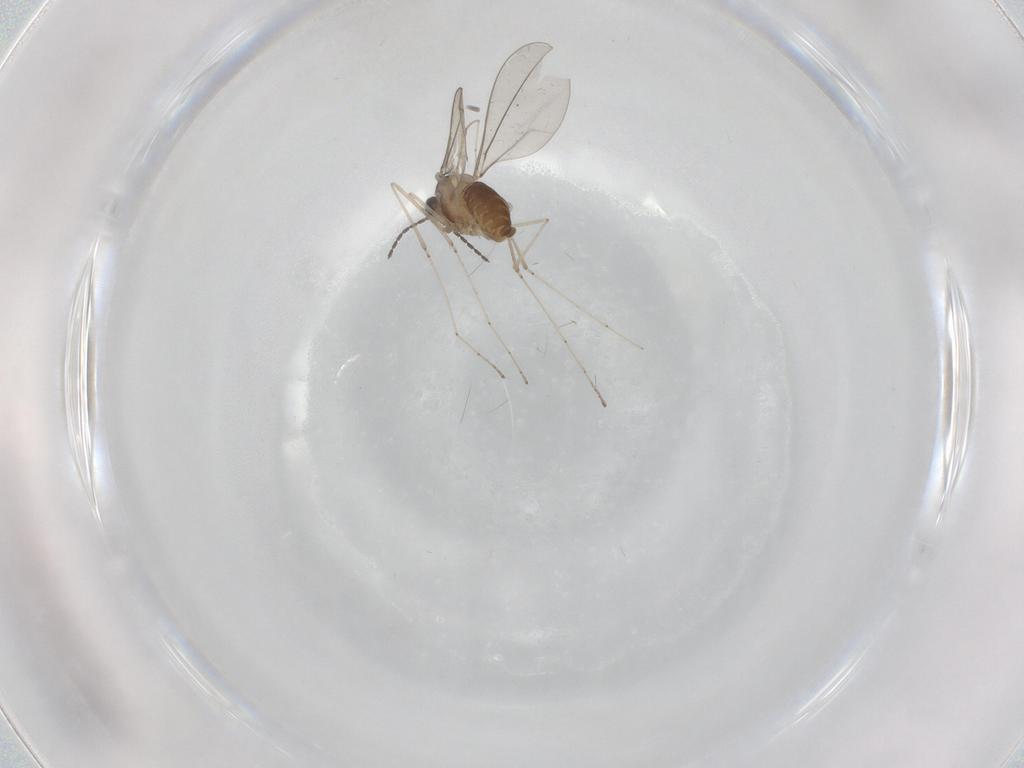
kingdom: Animalia
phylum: Arthropoda
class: Insecta
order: Diptera
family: Cecidomyiidae
